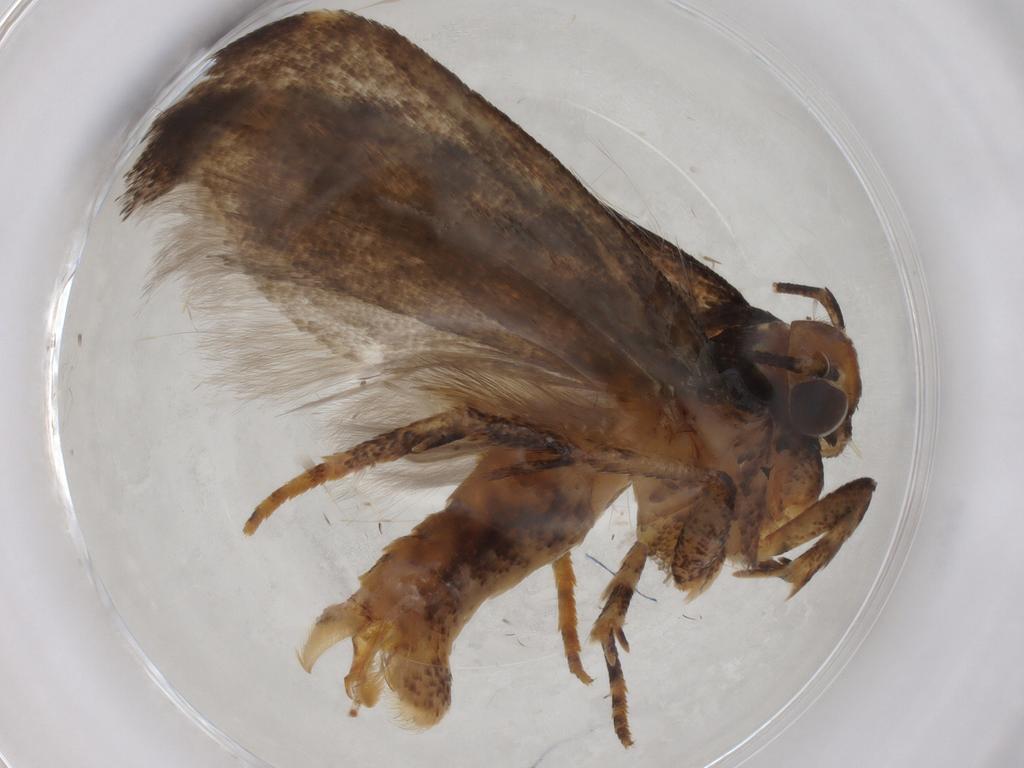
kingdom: Animalia
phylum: Arthropoda
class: Insecta
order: Lepidoptera
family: Gelechiidae
